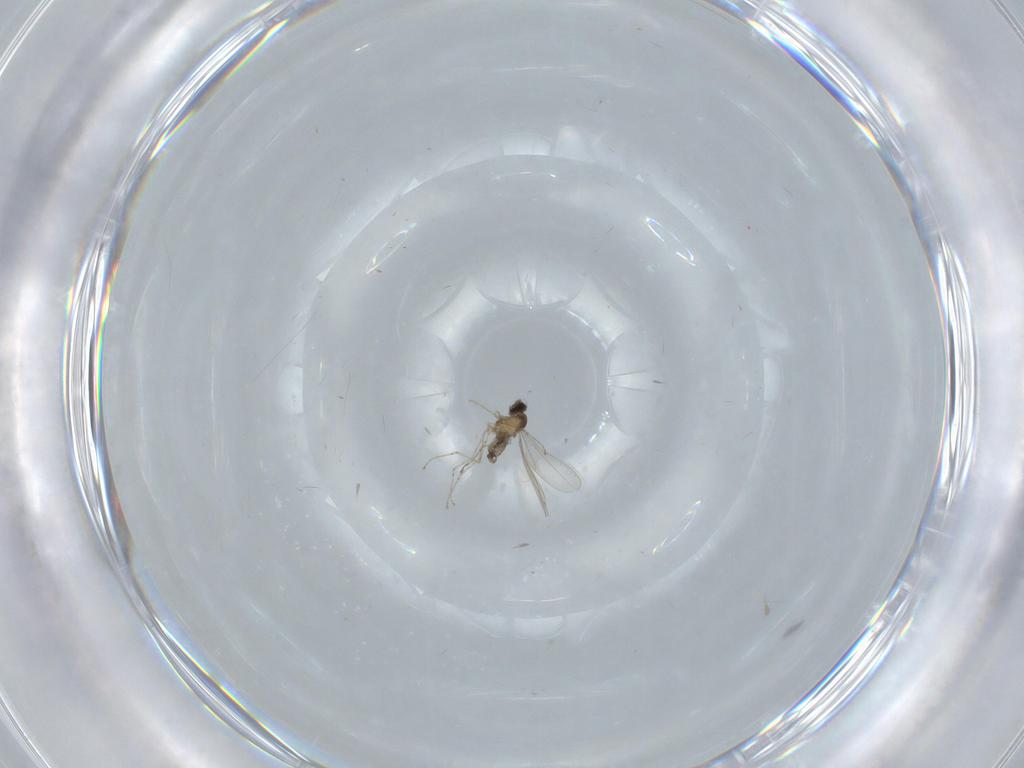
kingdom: Animalia
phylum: Arthropoda
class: Insecta
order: Diptera
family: Cecidomyiidae
